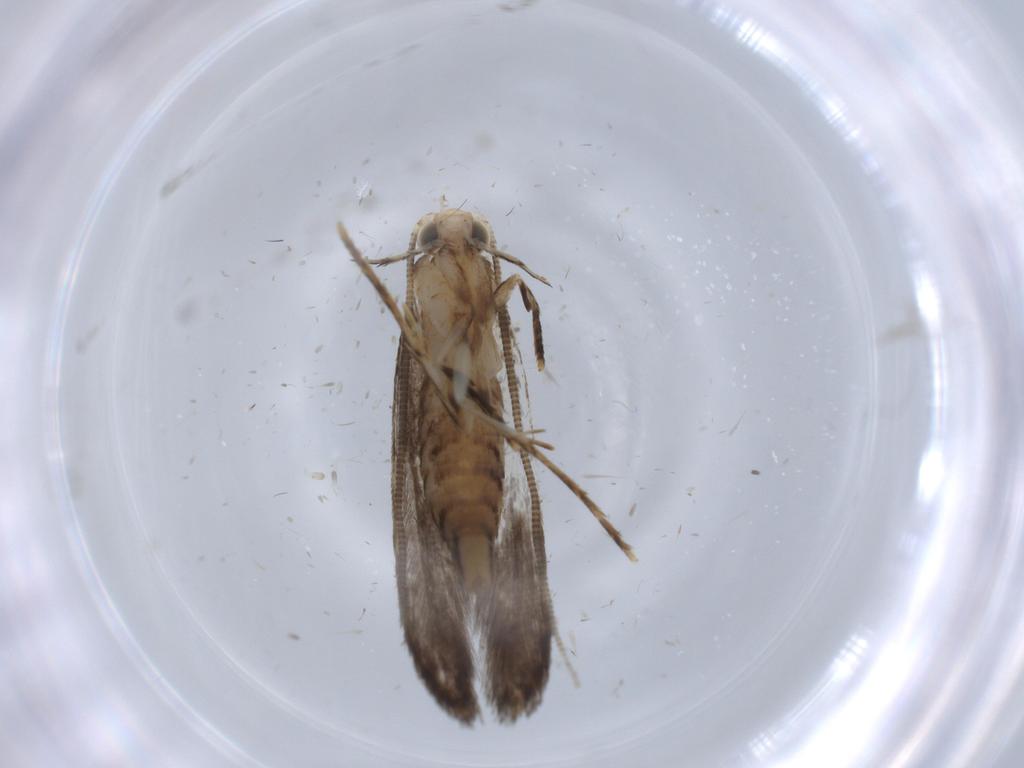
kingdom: Animalia
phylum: Arthropoda
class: Insecta
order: Lepidoptera
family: Tineidae
